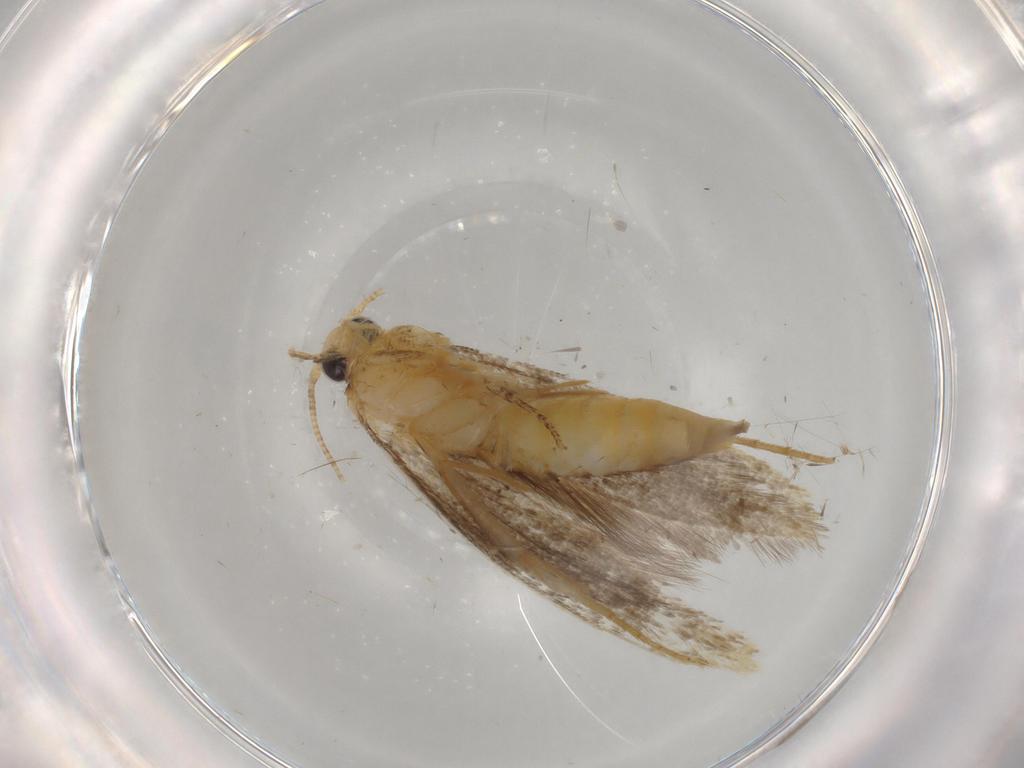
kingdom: Animalia
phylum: Arthropoda
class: Insecta
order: Lepidoptera
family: Tineidae
